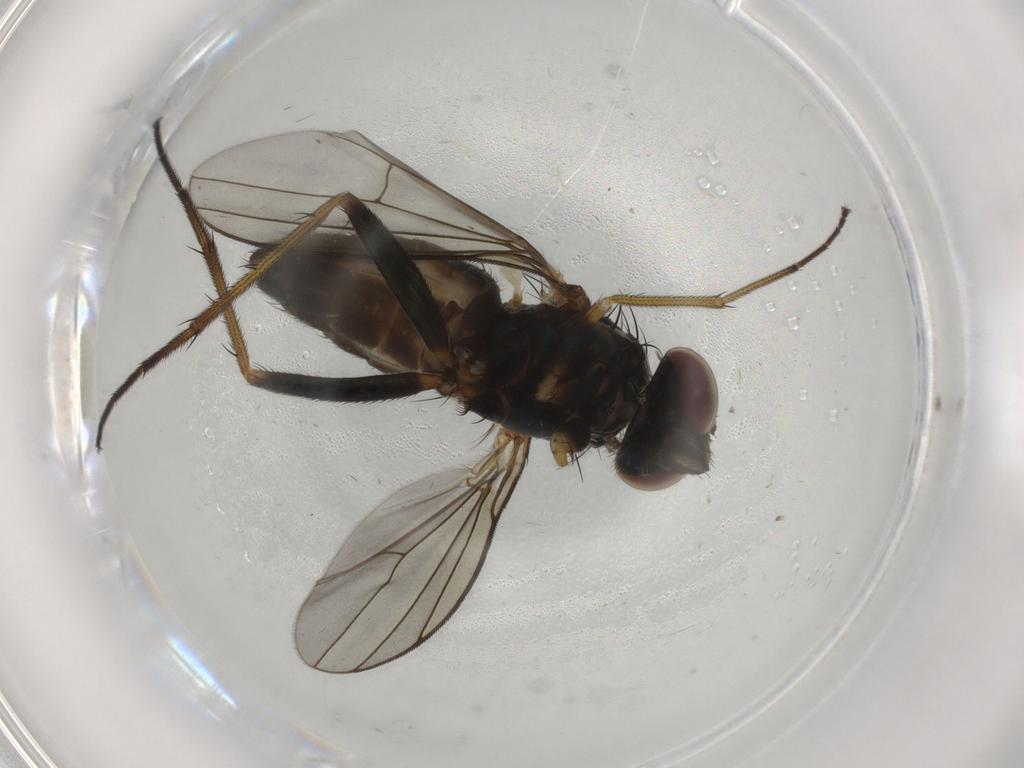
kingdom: Animalia
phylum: Arthropoda
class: Insecta
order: Diptera
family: Dolichopodidae
